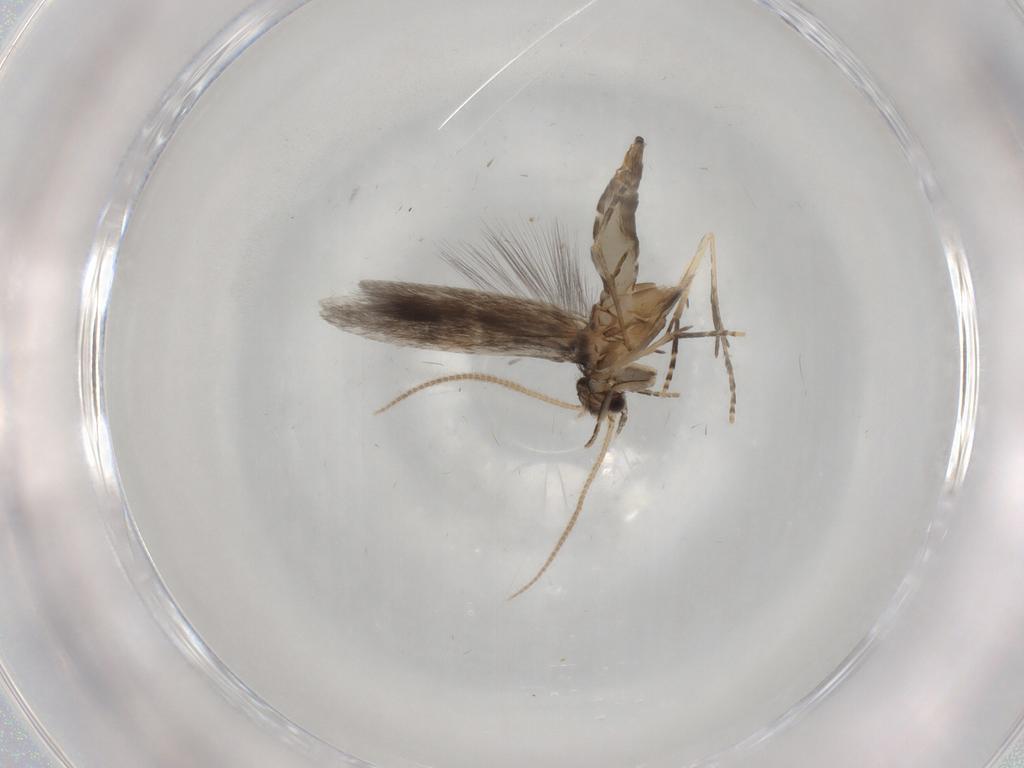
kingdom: Animalia
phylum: Arthropoda
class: Insecta
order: Trichoptera
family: Hydroptilidae
